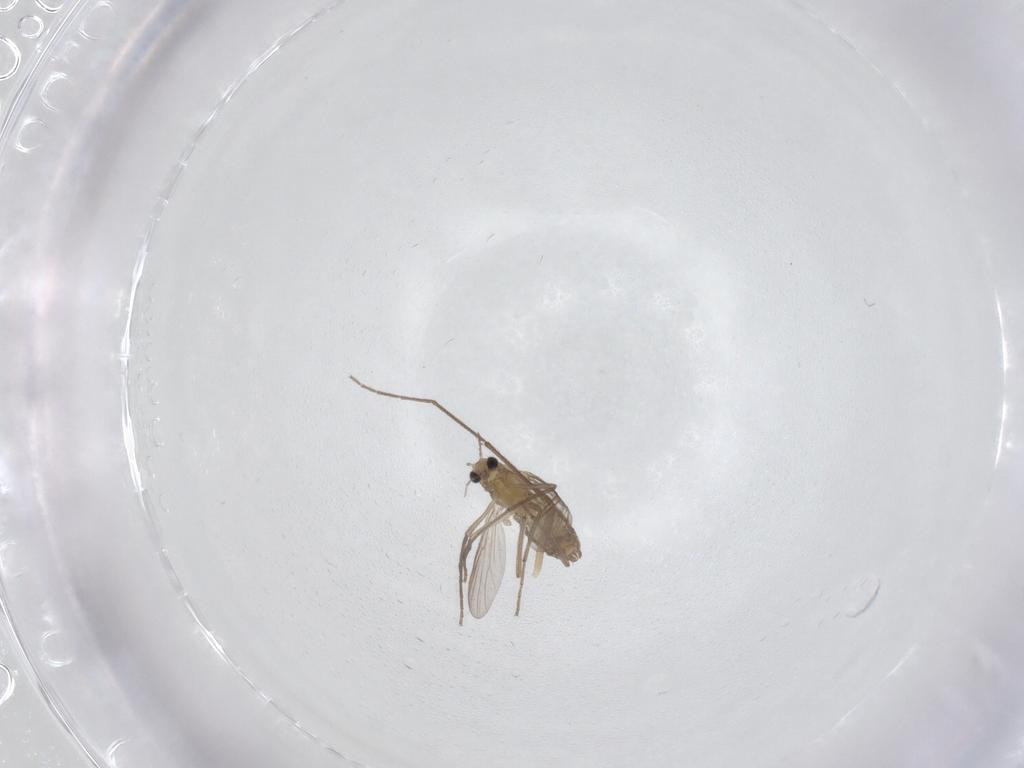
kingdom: Animalia
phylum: Arthropoda
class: Insecta
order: Diptera
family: Chironomidae
